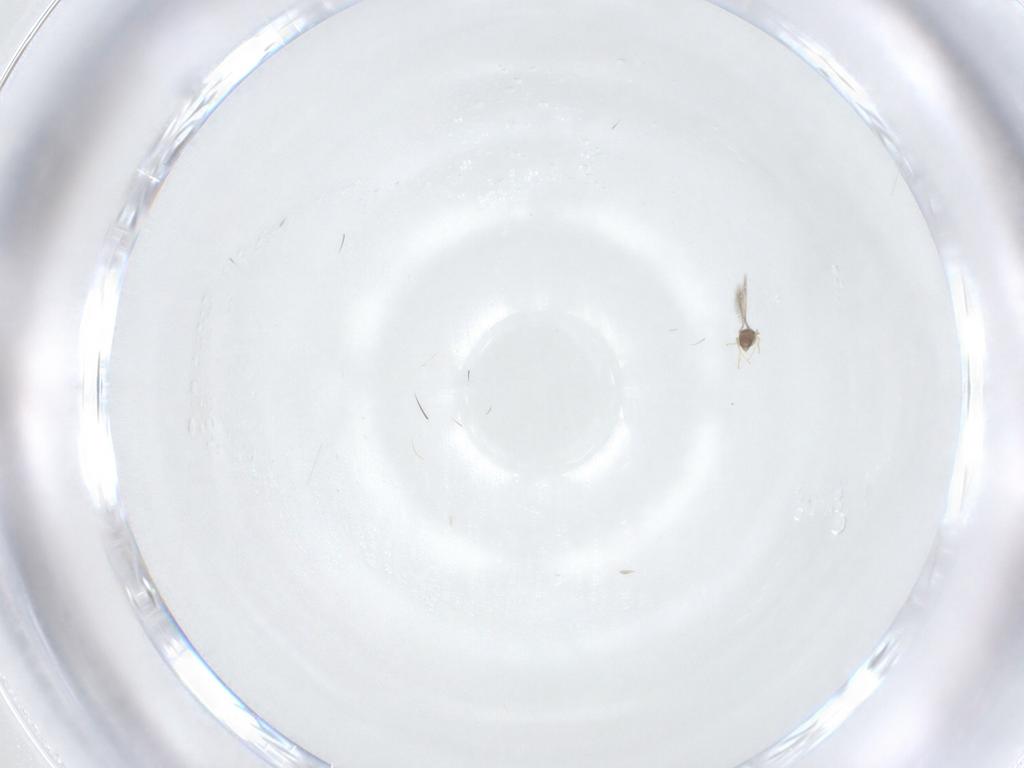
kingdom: Animalia
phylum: Arthropoda
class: Insecta
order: Hymenoptera
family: Mymaridae
